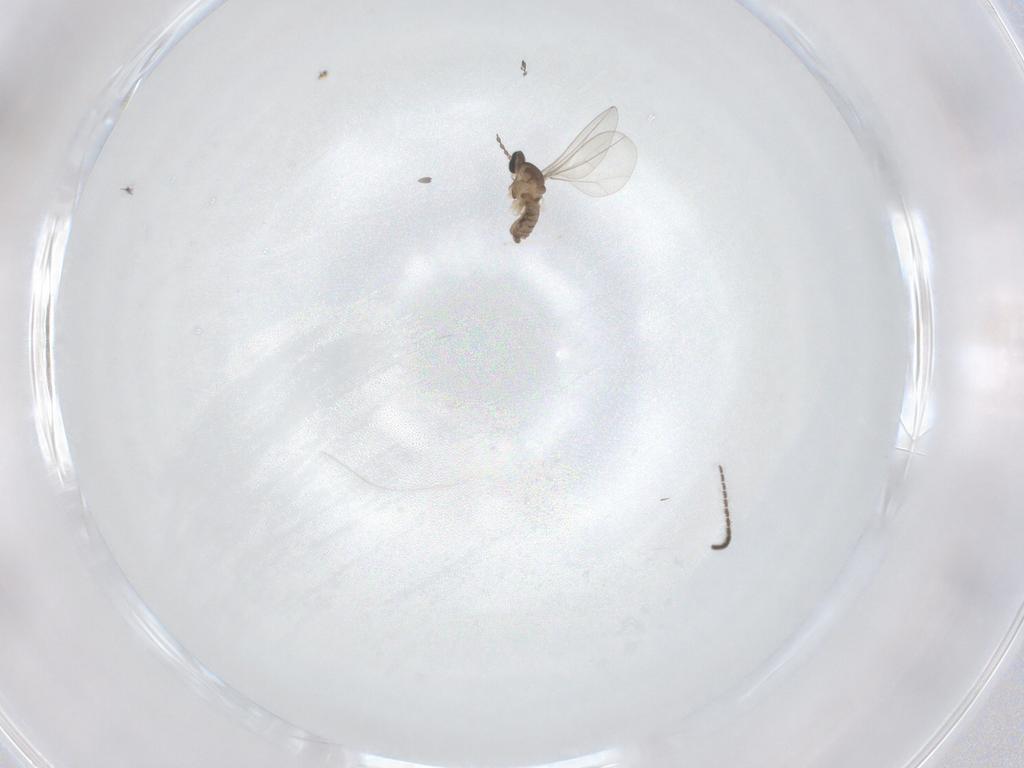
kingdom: Animalia
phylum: Arthropoda
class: Insecta
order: Diptera
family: Cecidomyiidae
